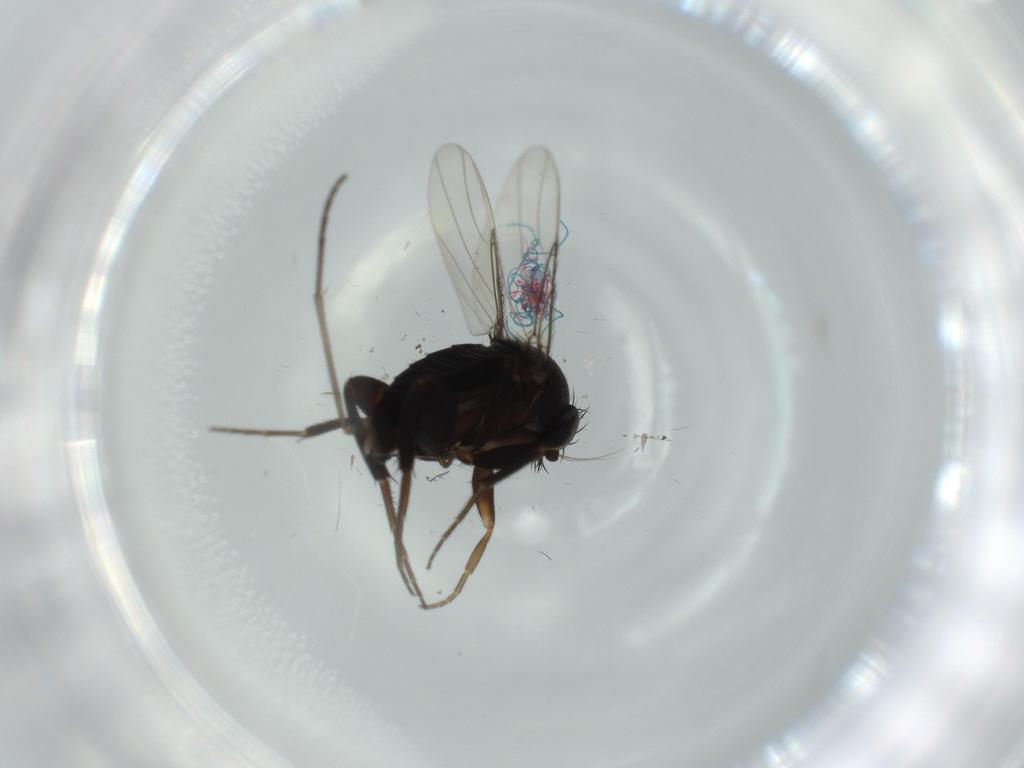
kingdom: Animalia
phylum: Arthropoda
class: Insecta
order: Diptera
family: Phoridae
